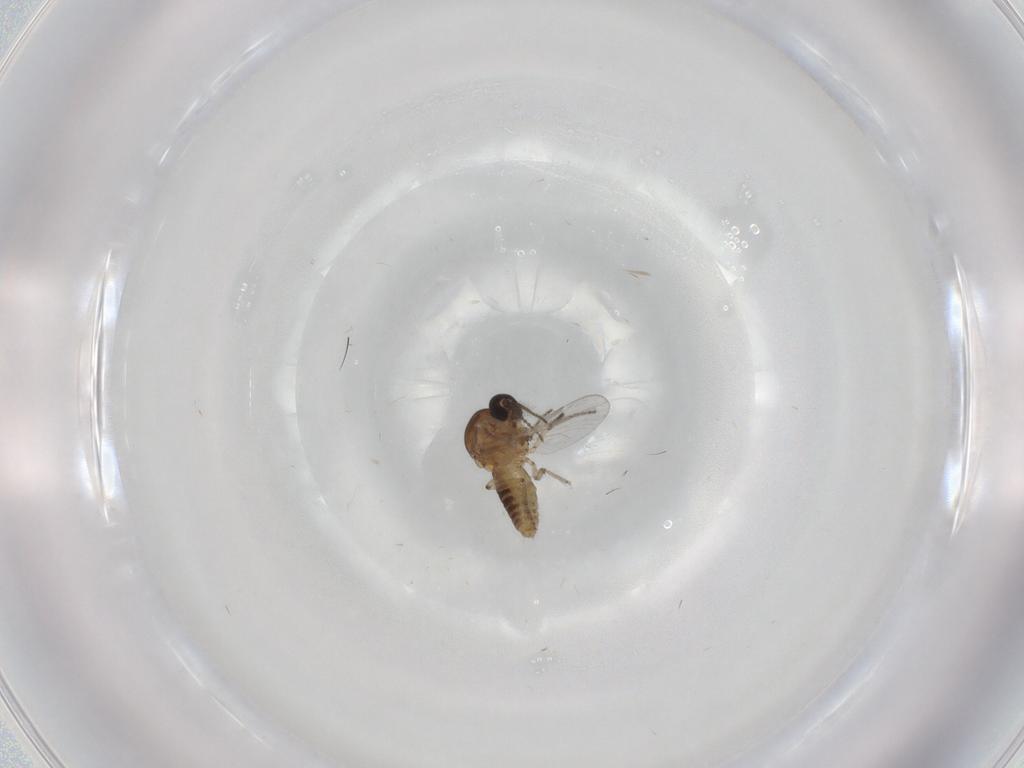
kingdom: Animalia
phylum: Arthropoda
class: Insecta
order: Diptera
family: Ceratopogonidae
